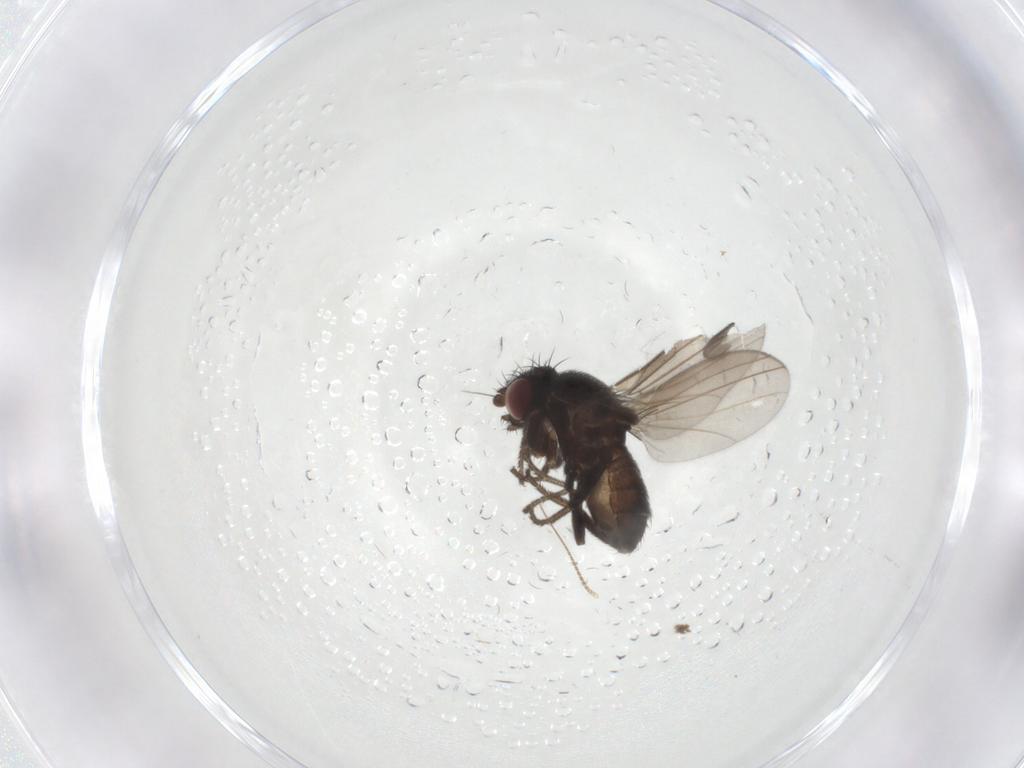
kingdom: Animalia
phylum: Arthropoda
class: Insecta
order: Diptera
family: Milichiidae
